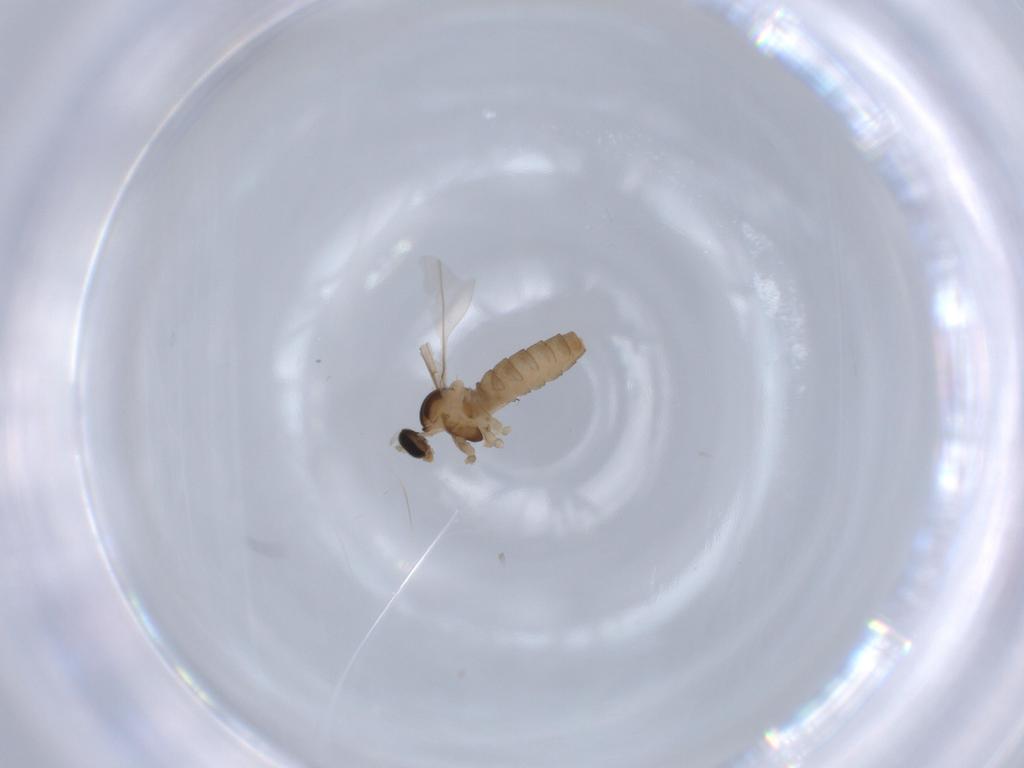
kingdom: Animalia
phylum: Arthropoda
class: Insecta
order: Diptera
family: Cecidomyiidae
